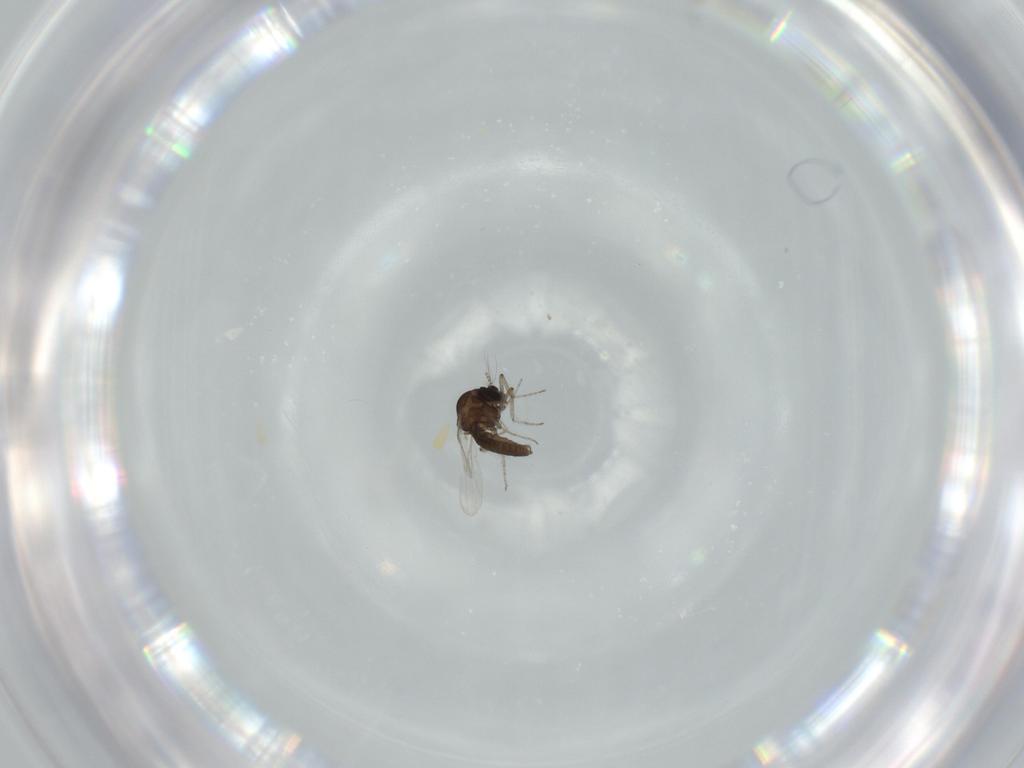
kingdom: Animalia
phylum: Arthropoda
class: Insecta
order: Diptera
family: Ceratopogonidae
